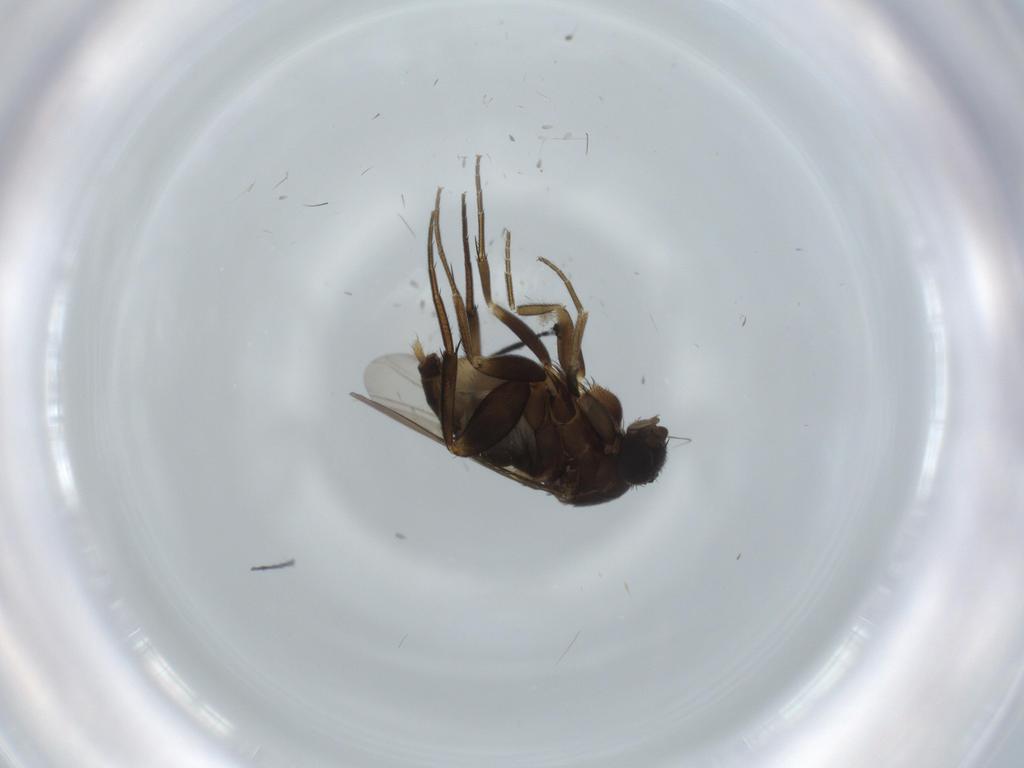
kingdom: Animalia
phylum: Arthropoda
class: Insecta
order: Diptera
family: Phoridae
